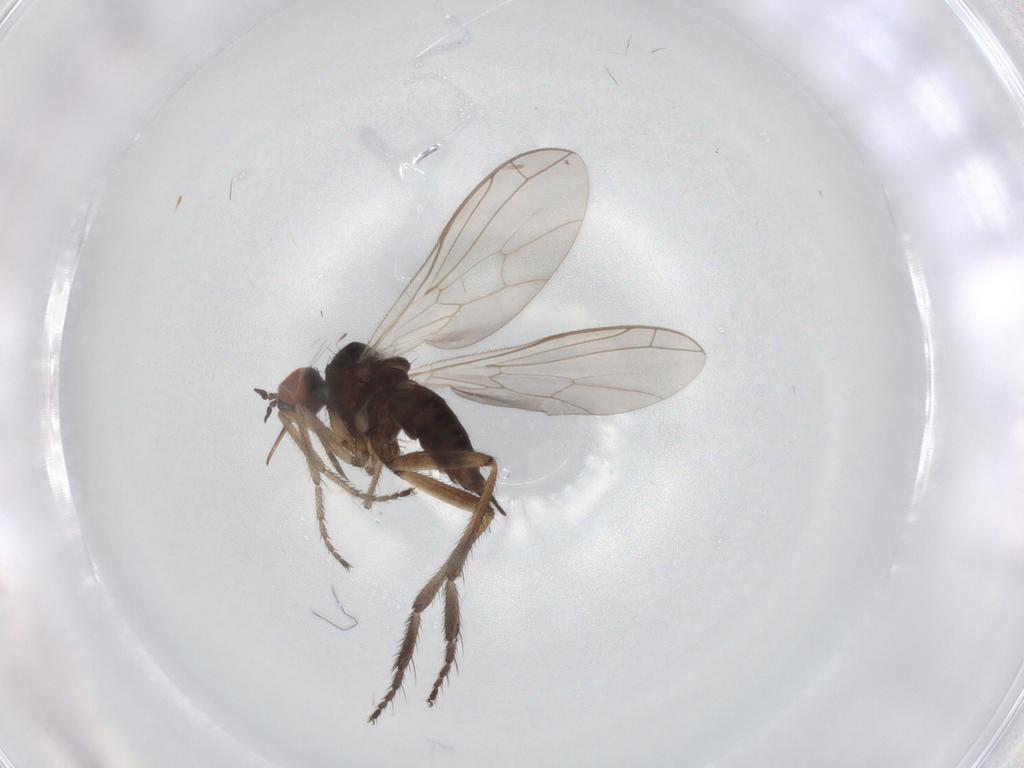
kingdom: Animalia
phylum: Arthropoda
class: Insecta
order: Diptera
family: Empididae
